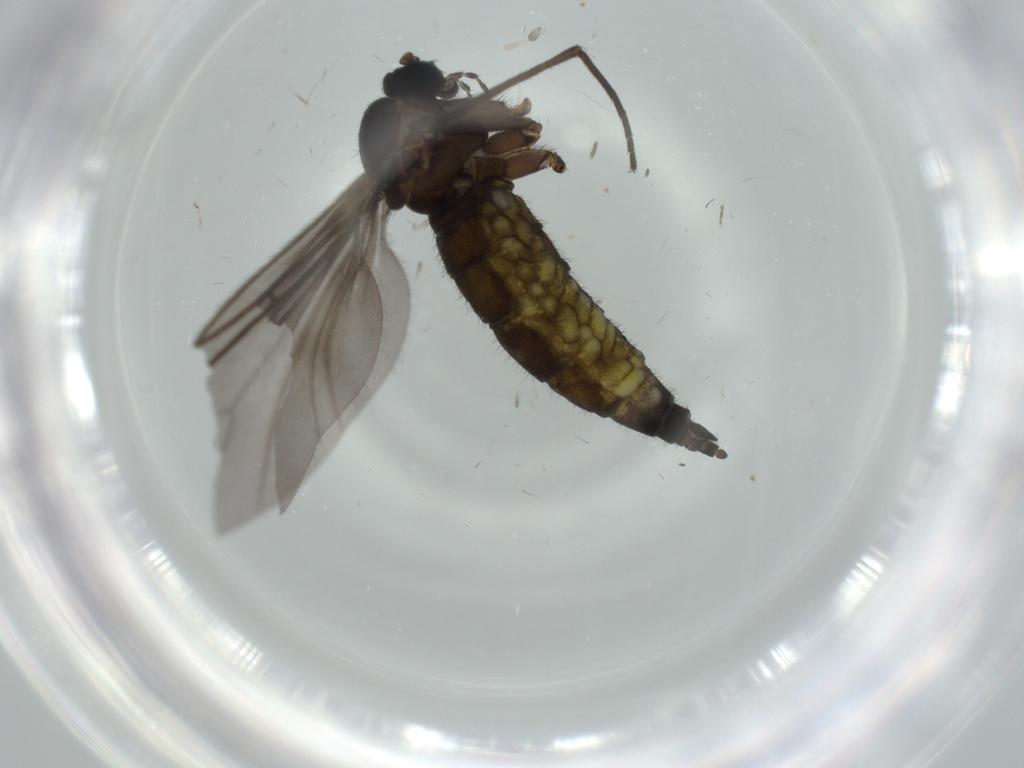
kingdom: Animalia
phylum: Arthropoda
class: Insecta
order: Diptera
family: Sciaridae
